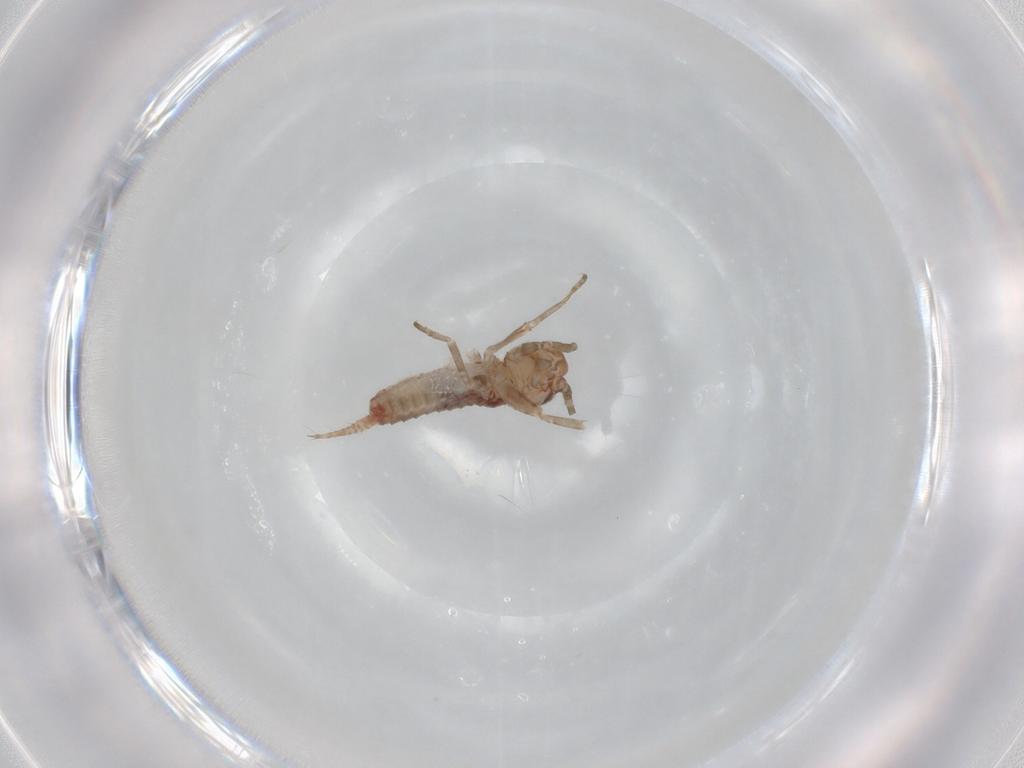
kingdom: Animalia
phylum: Arthropoda
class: Insecta
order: Orthoptera
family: Mogoplistidae
